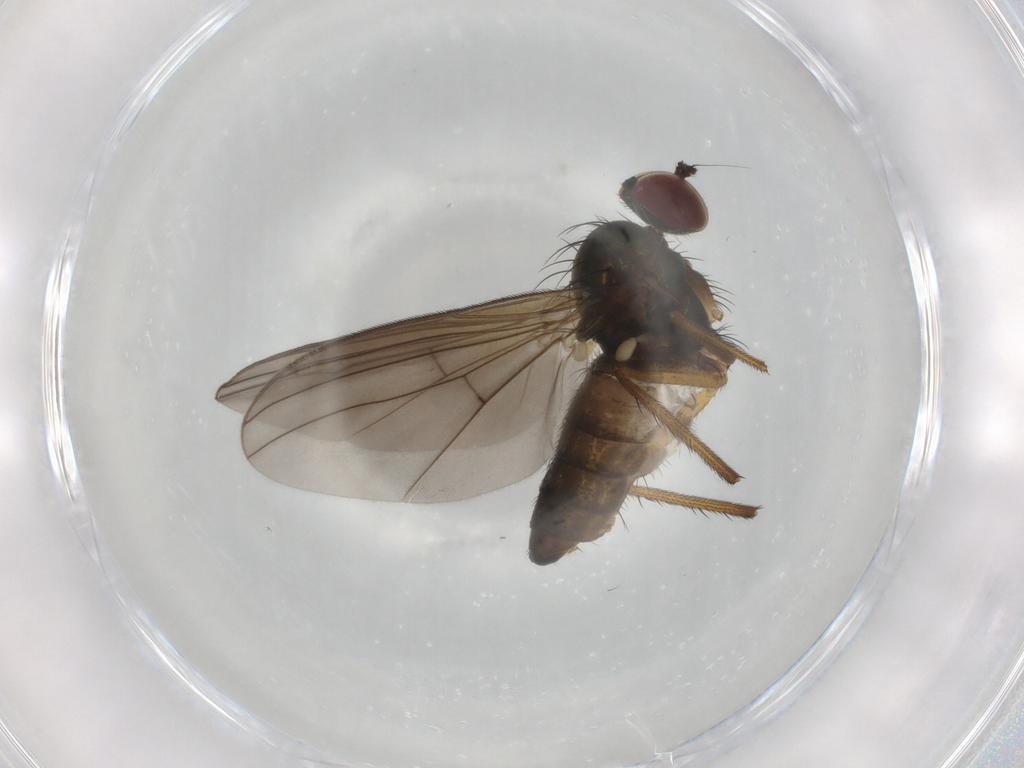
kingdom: Animalia
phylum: Arthropoda
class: Insecta
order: Diptera
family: Dolichopodidae
